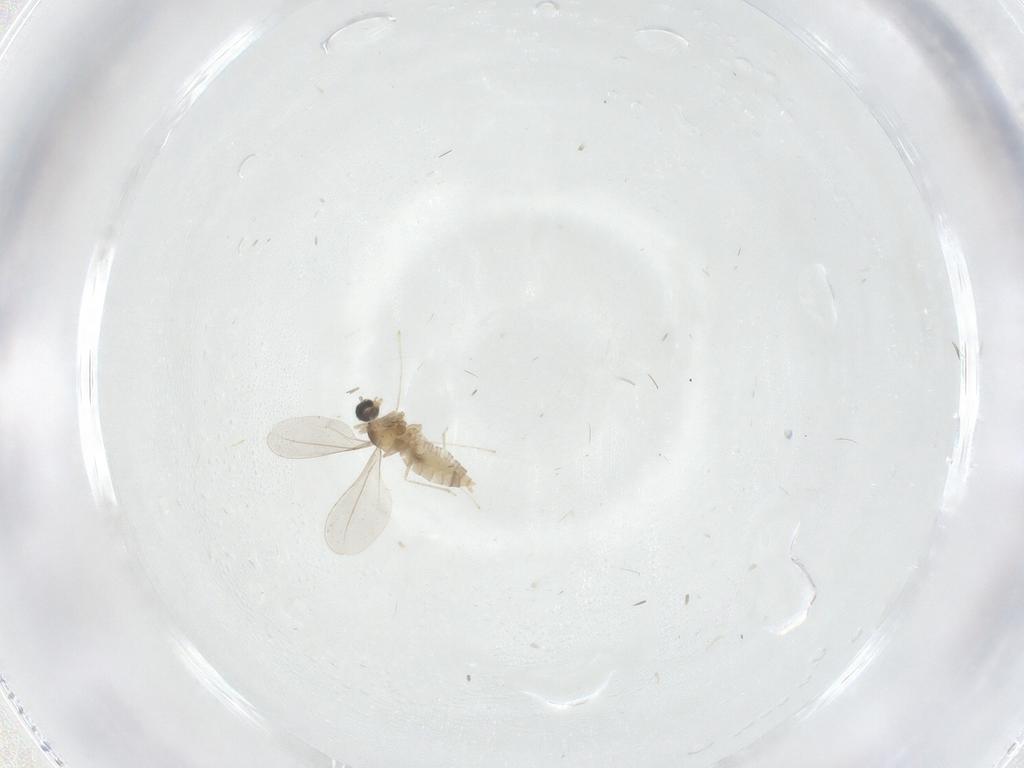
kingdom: Animalia
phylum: Arthropoda
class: Insecta
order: Diptera
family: Cecidomyiidae
